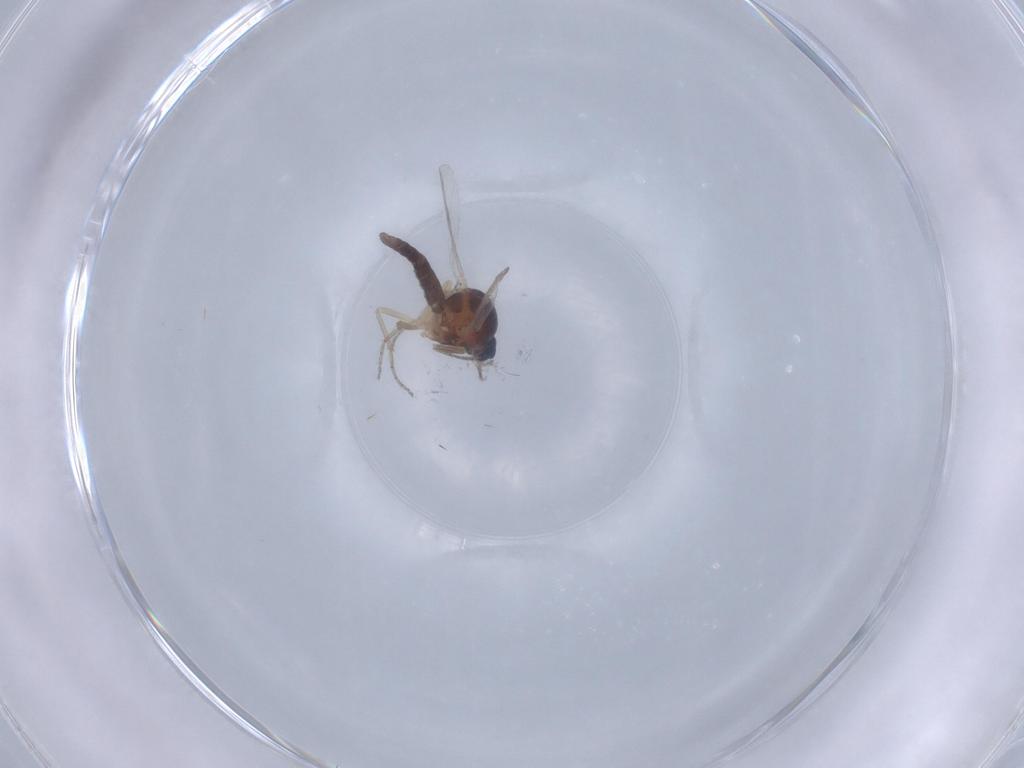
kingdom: Animalia
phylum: Arthropoda
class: Insecta
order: Diptera
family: Ceratopogonidae
